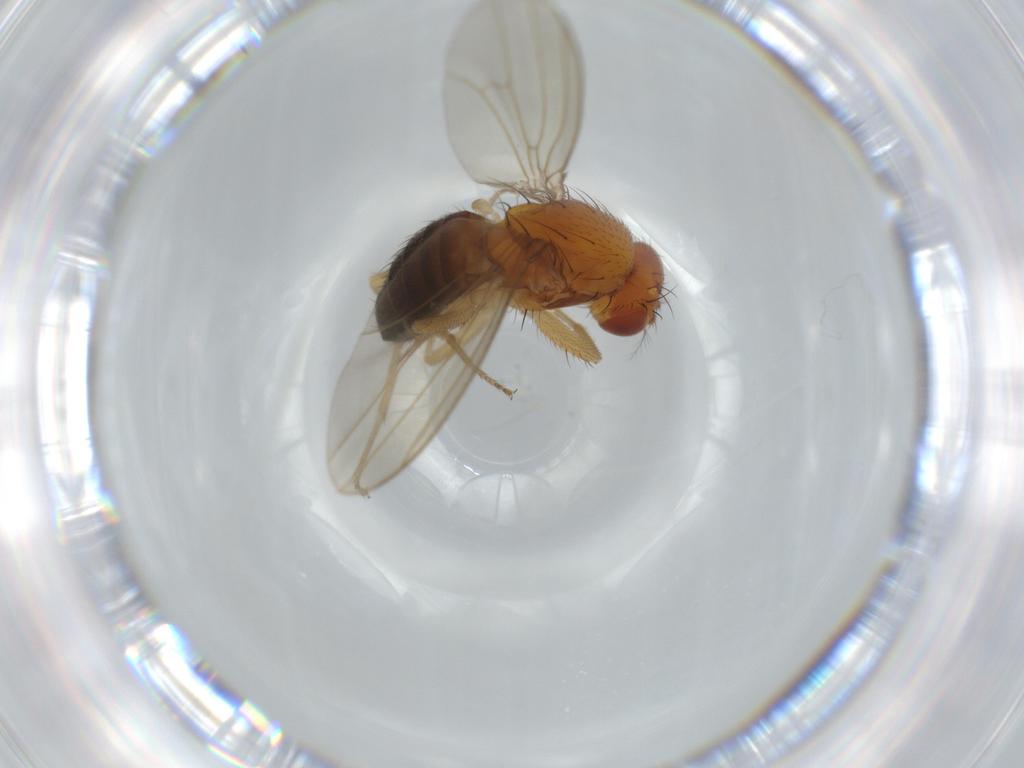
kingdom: Animalia
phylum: Arthropoda
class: Insecta
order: Diptera
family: Drosophilidae
